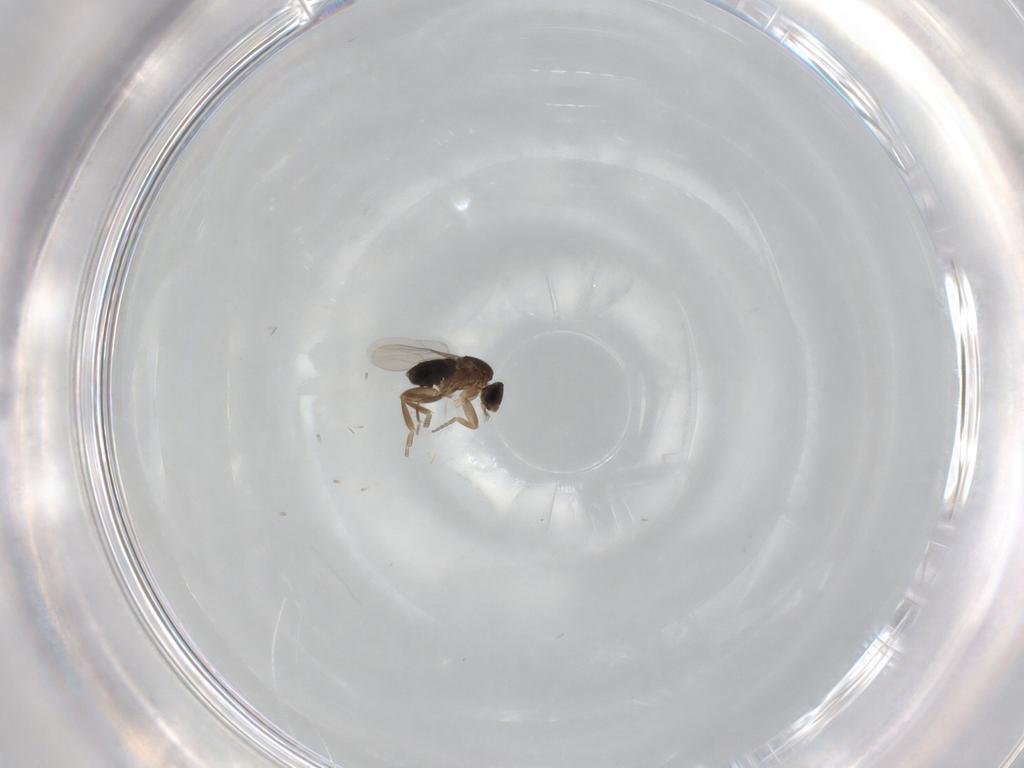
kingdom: Animalia
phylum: Arthropoda
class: Insecta
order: Diptera
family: Phoridae
